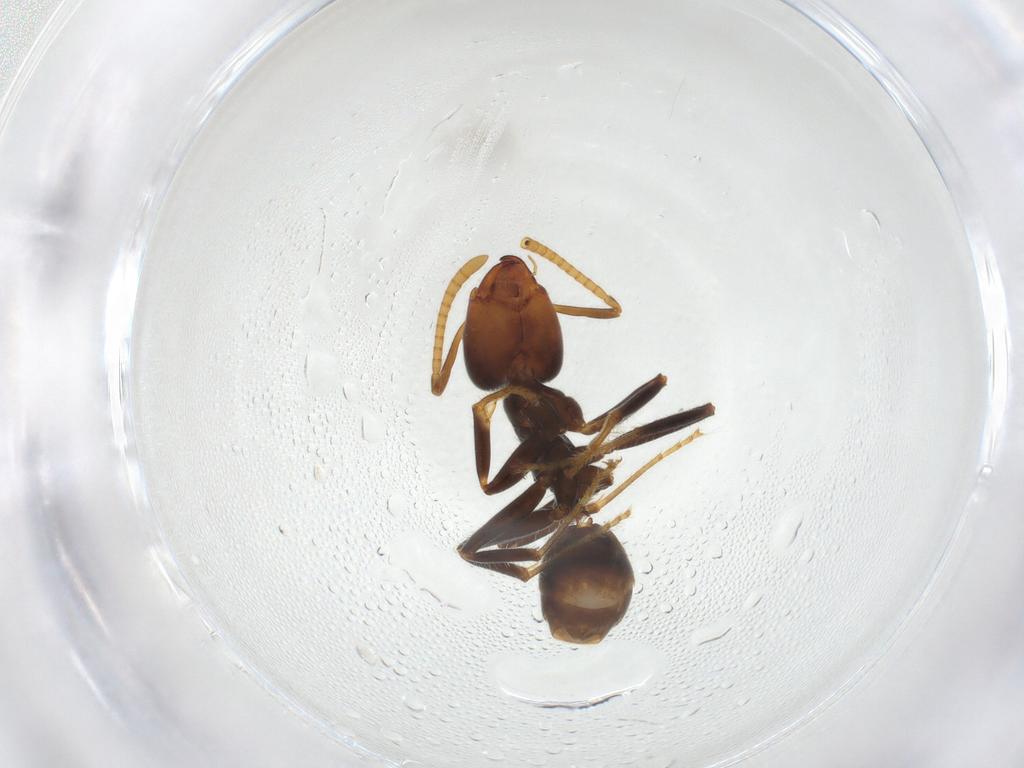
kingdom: Animalia
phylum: Arthropoda
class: Insecta
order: Hymenoptera
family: Formicidae
